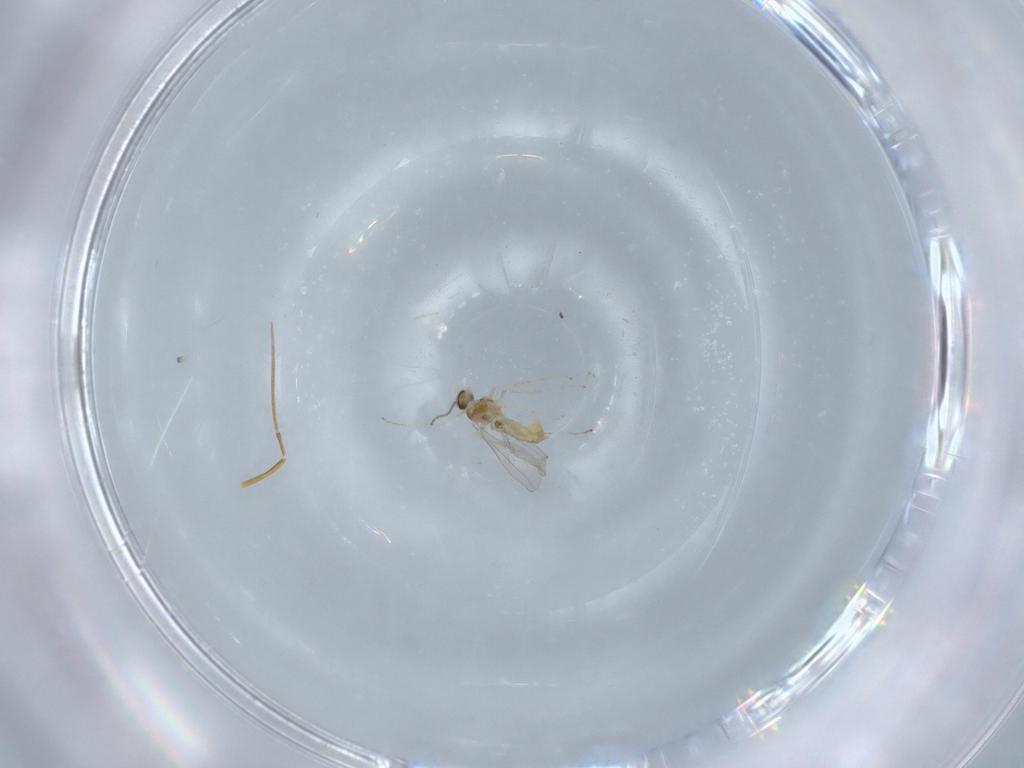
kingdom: Animalia
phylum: Arthropoda
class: Insecta
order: Diptera
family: Cecidomyiidae
